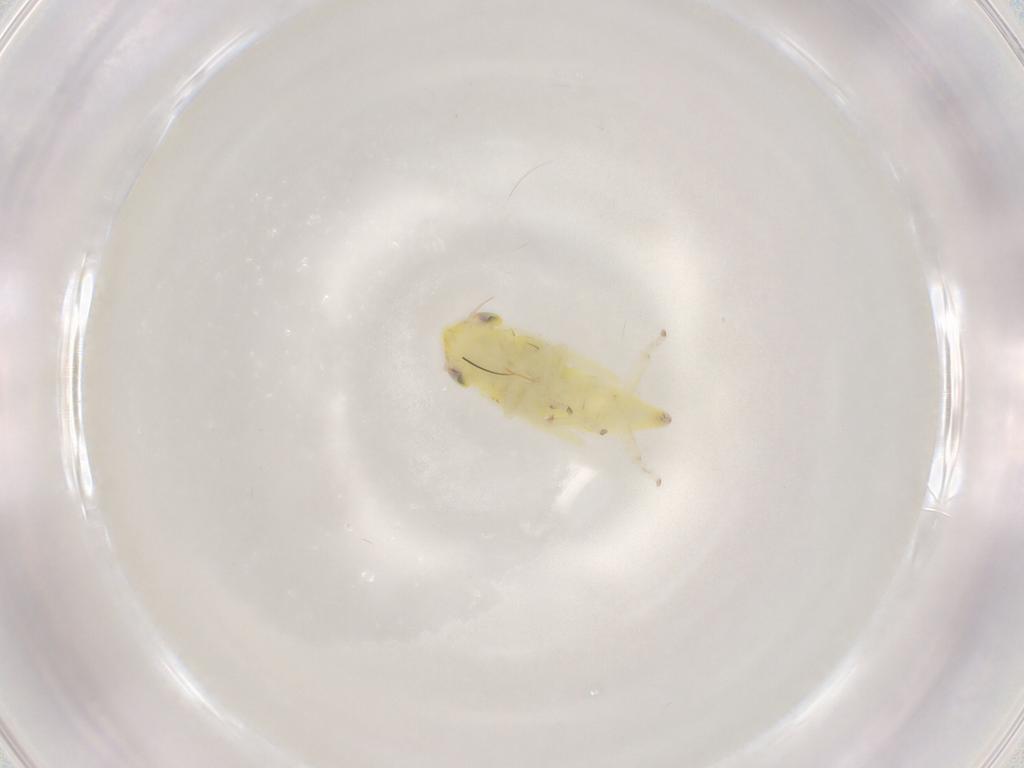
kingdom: Animalia
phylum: Arthropoda
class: Insecta
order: Hemiptera
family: Cicadellidae
